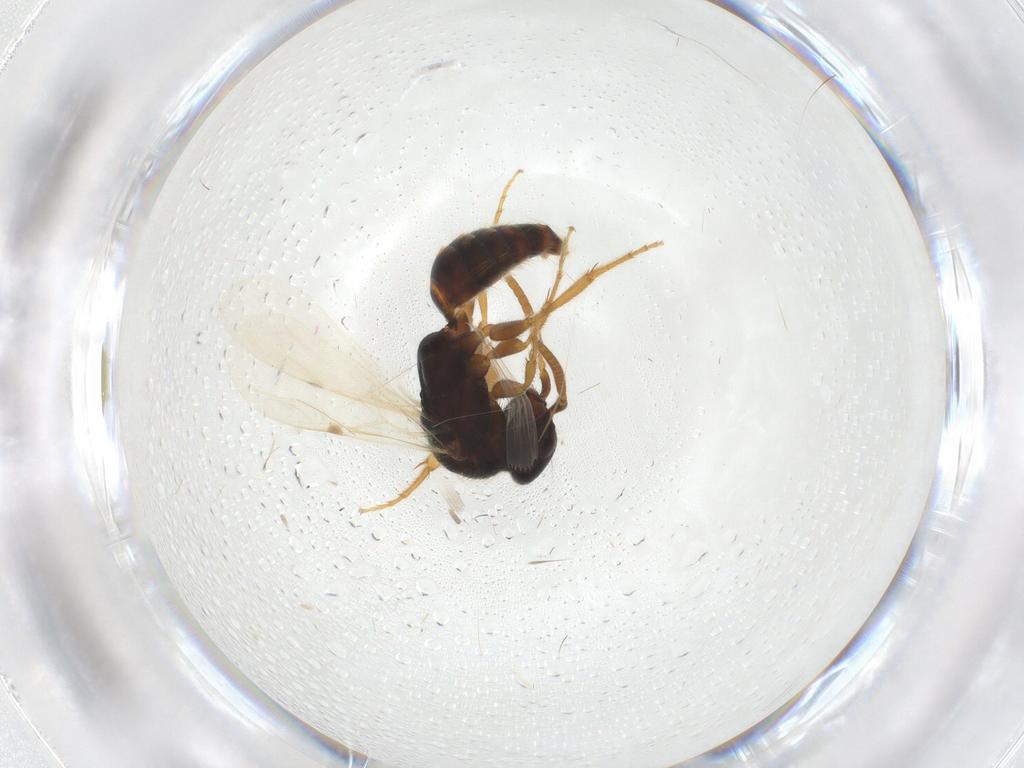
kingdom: Animalia
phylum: Arthropoda
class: Insecta
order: Hymenoptera
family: Bethylidae
